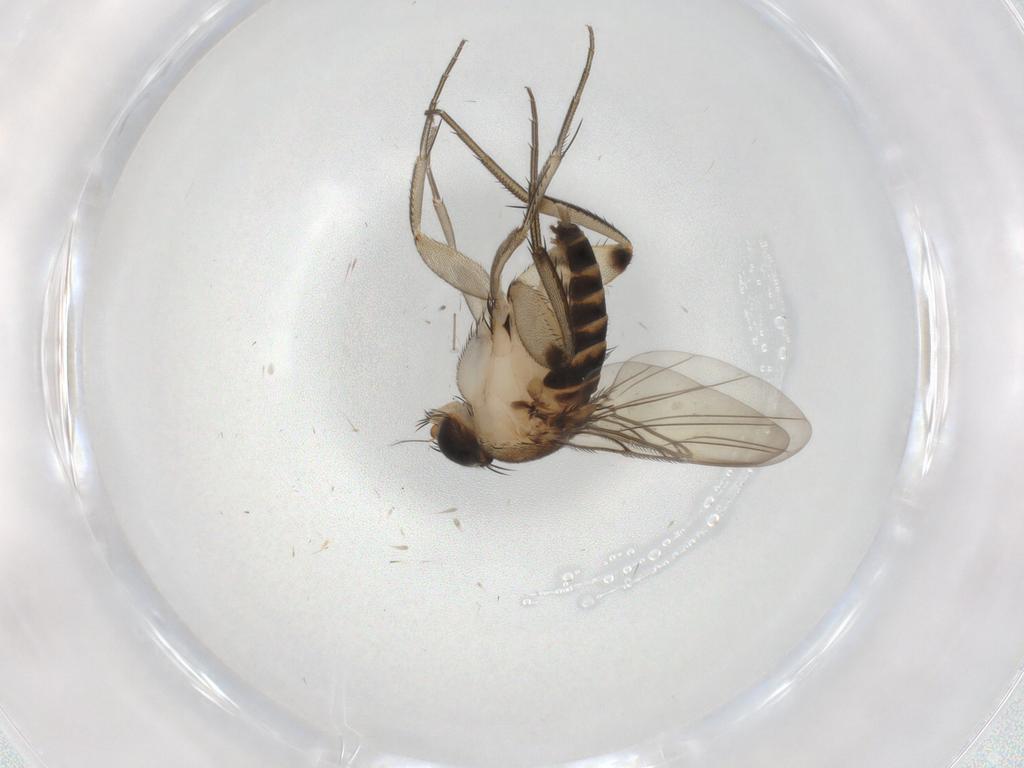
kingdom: Animalia
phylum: Arthropoda
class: Insecta
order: Diptera
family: Phoridae
